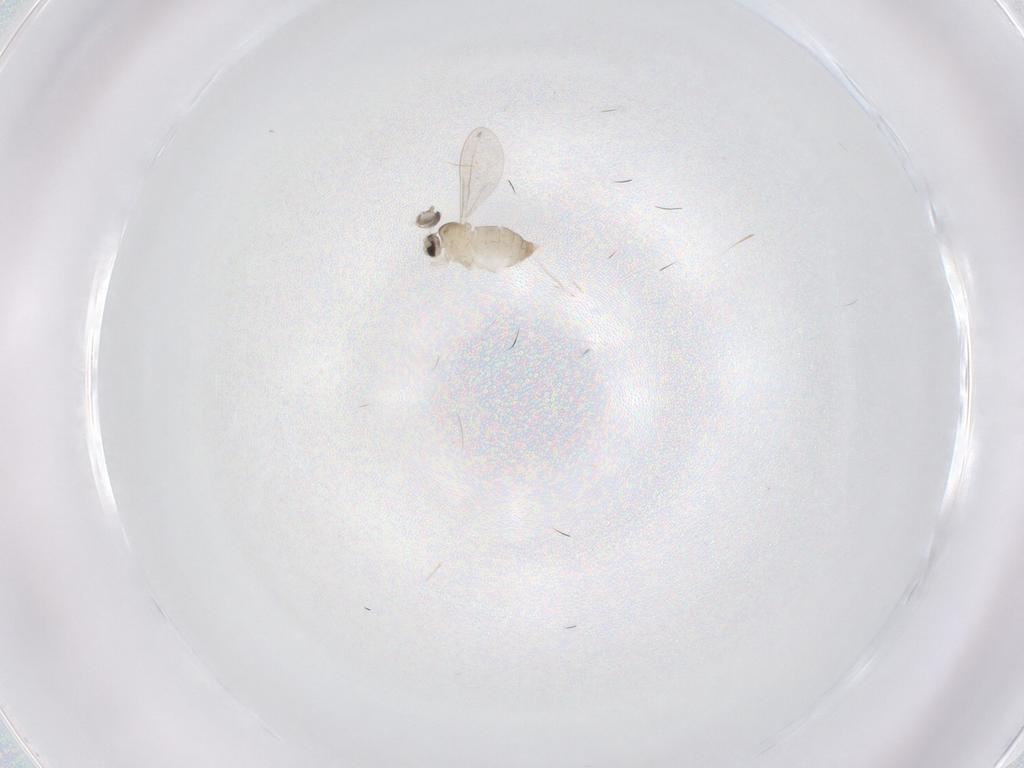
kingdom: Animalia
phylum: Arthropoda
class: Insecta
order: Diptera
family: Cecidomyiidae
